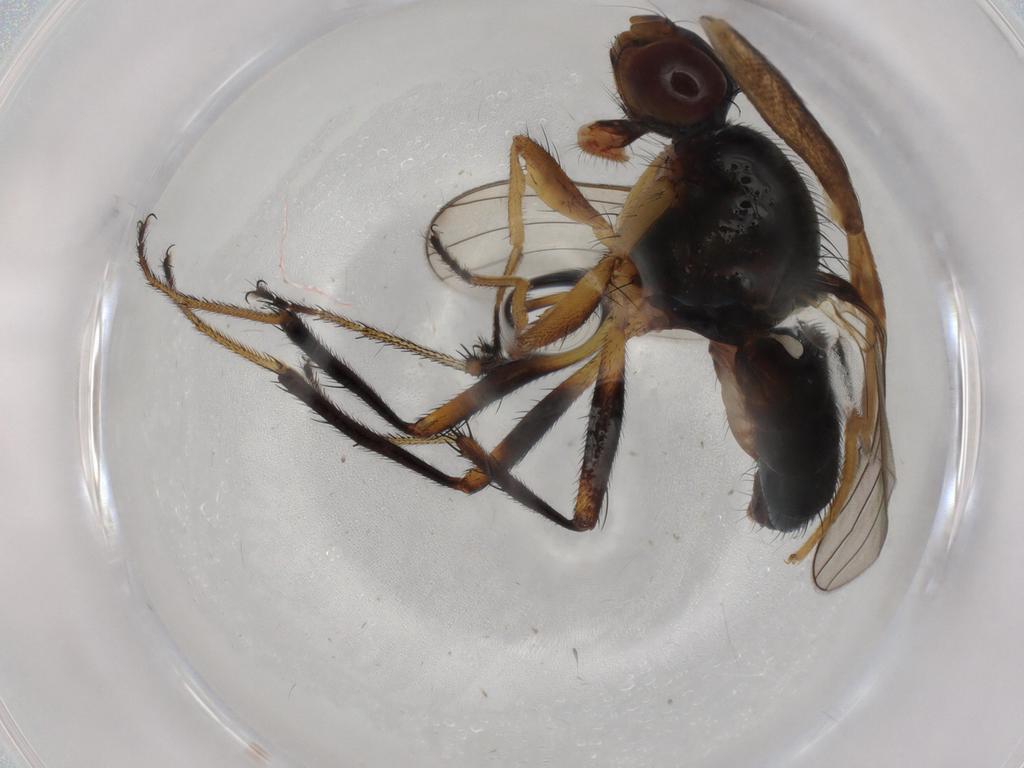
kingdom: Animalia
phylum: Arthropoda
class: Insecta
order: Diptera
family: Sepsidae
